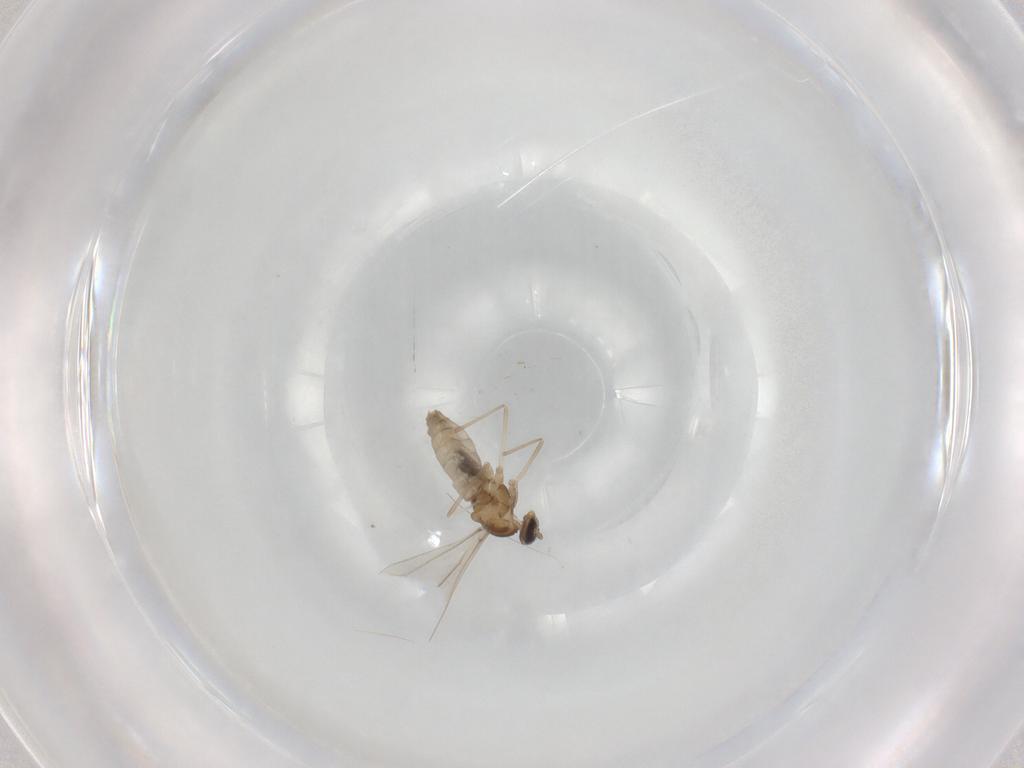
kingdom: Animalia
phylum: Arthropoda
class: Insecta
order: Diptera
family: Cecidomyiidae
